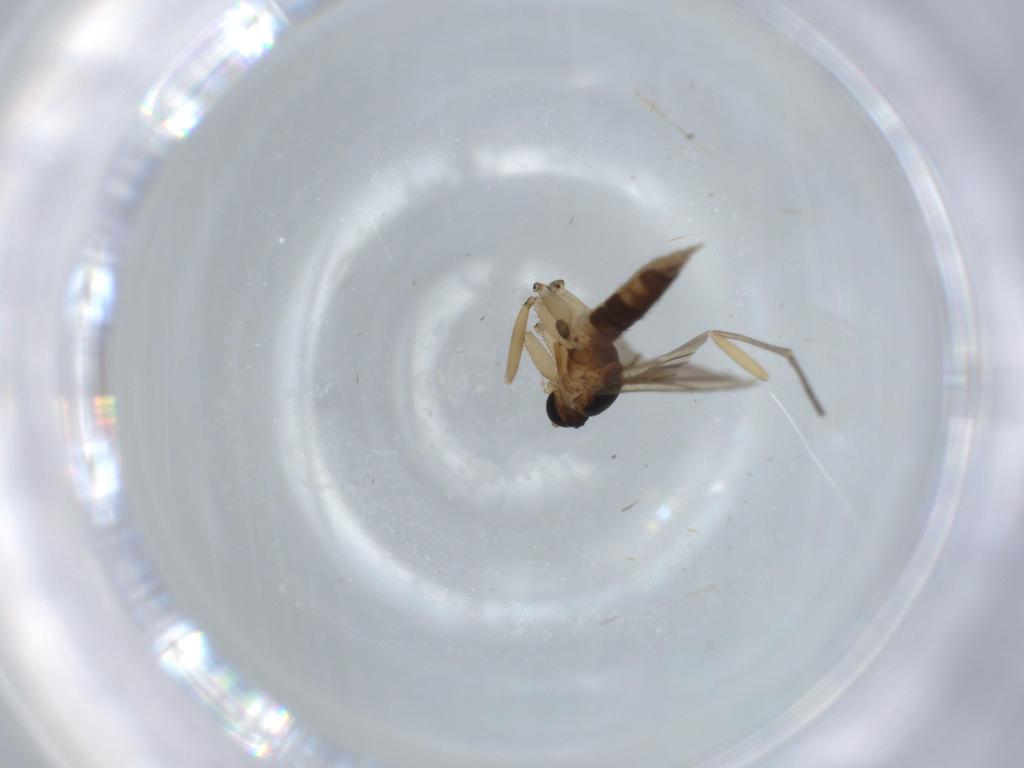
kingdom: Animalia
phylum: Arthropoda
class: Insecta
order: Diptera
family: Sciaridae
